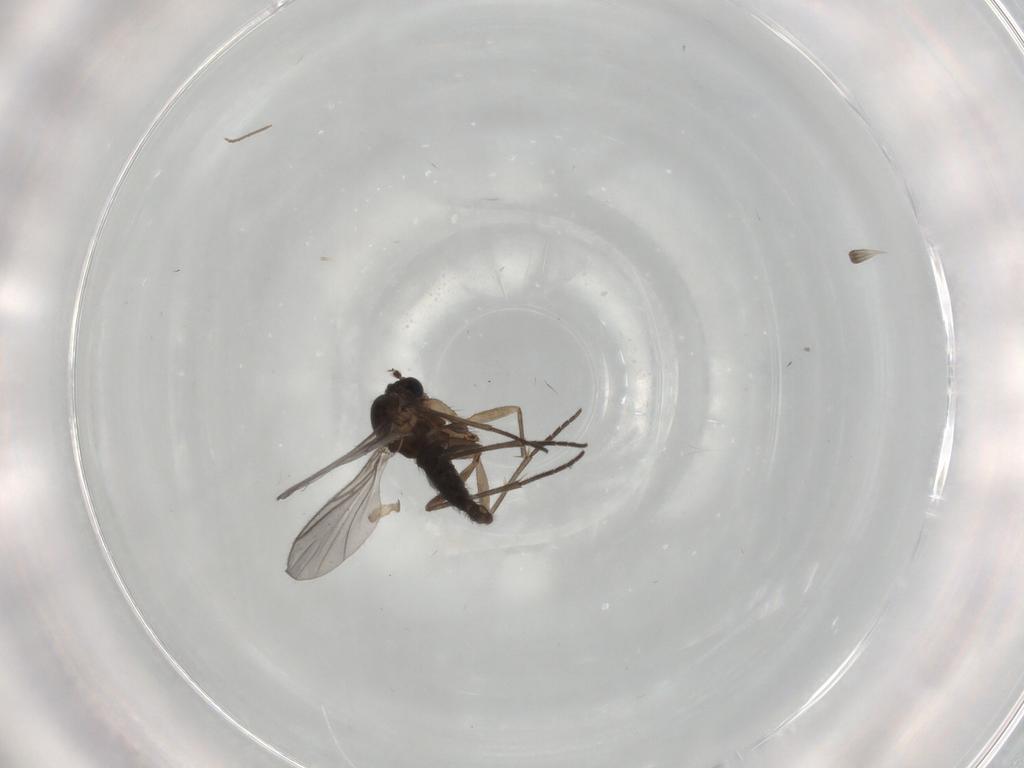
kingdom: Animalia
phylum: Arthropoda
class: Insecta
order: Diptera
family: Sciaridae
